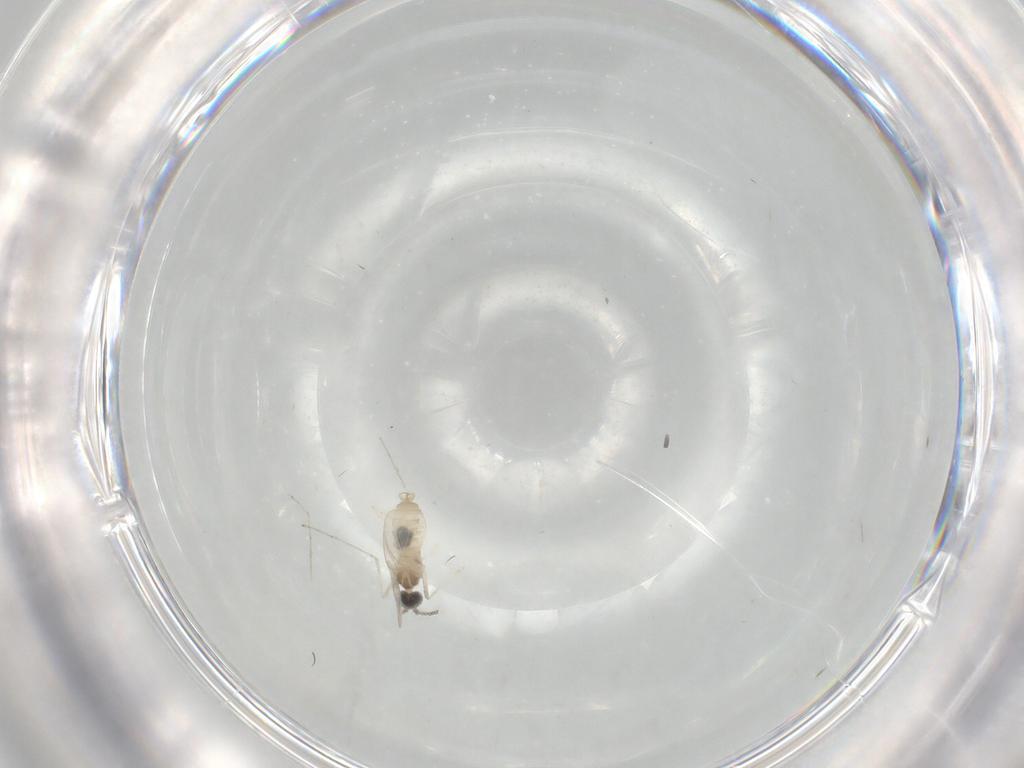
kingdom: Animalia
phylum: Arthropoda
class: Insecta
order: Diptera
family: Cecidomyiidae
